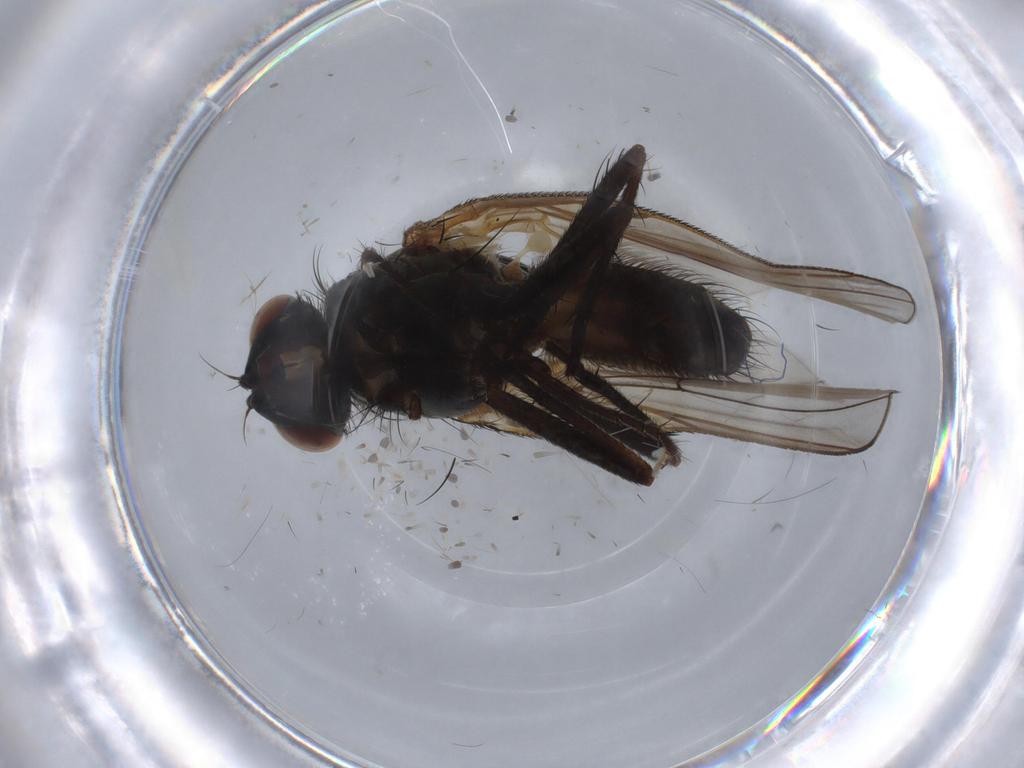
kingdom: Animalia
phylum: Arthropoda
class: Insecta
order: Diptera
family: Anthomyiidae
